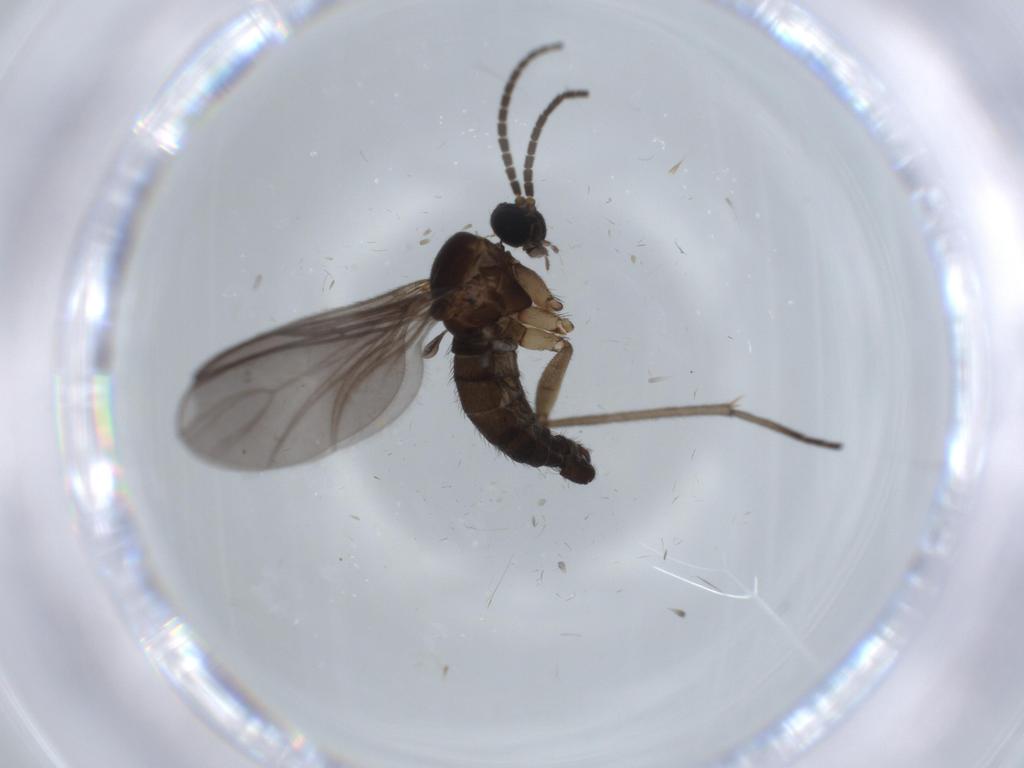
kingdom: Animalia
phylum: Arthropoda
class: Insecta
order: Diptera
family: Sciaridae
